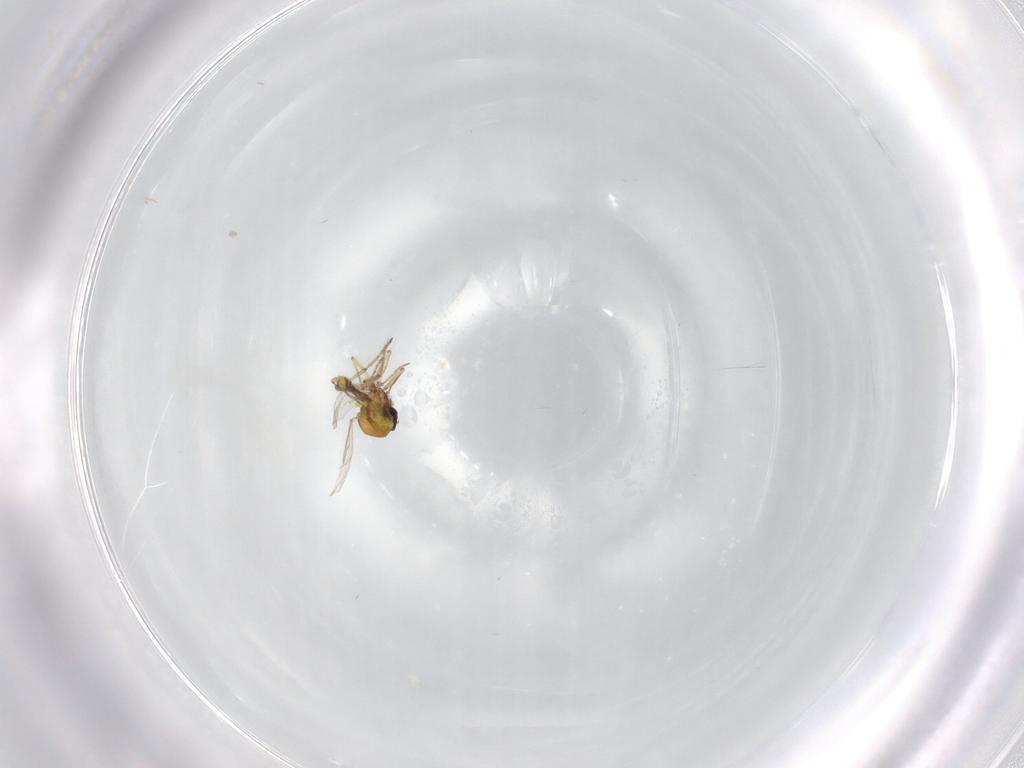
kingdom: Animalia
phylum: Arthropoda
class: Insecta
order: Diptera
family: Ceratopogonidae
